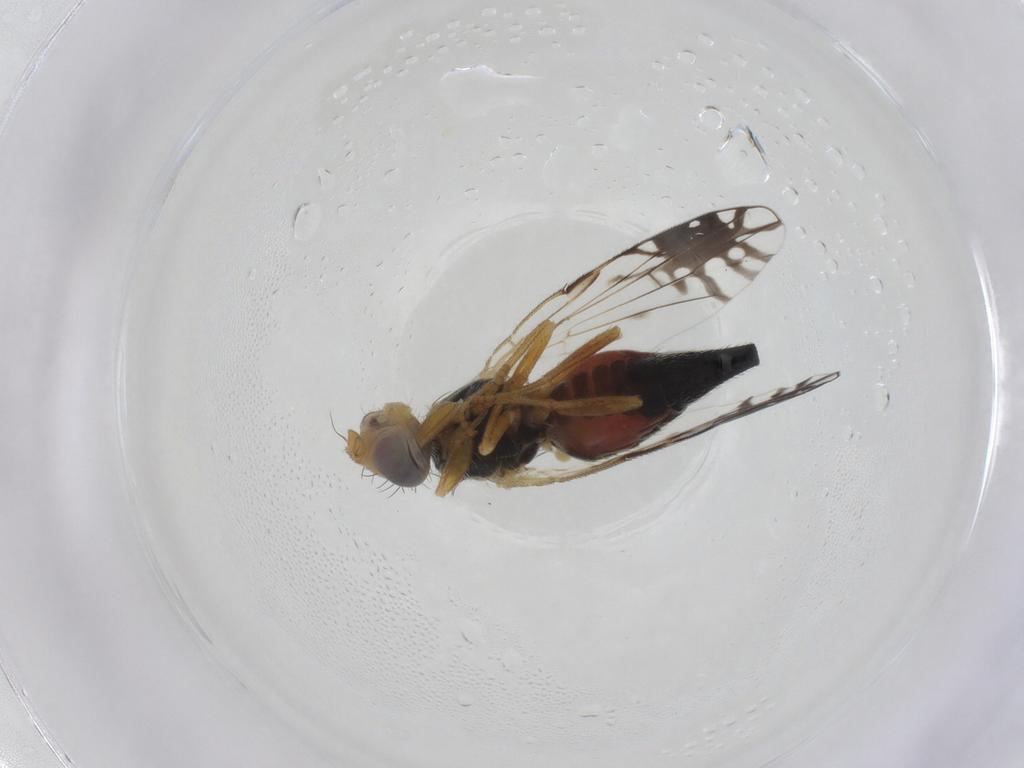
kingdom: Animalia
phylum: Arthropoda
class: Insecta
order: Diptera
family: Tephritidae
